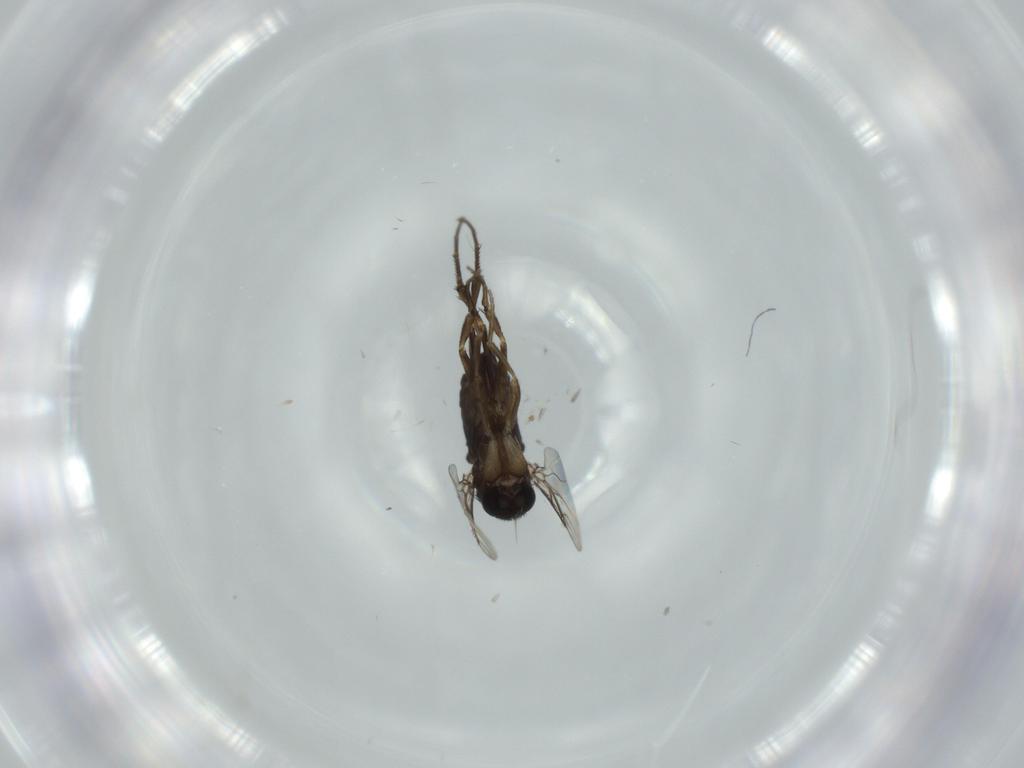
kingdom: Animalia
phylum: Arthropoda
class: Insecta
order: Diptera
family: Phoridae
